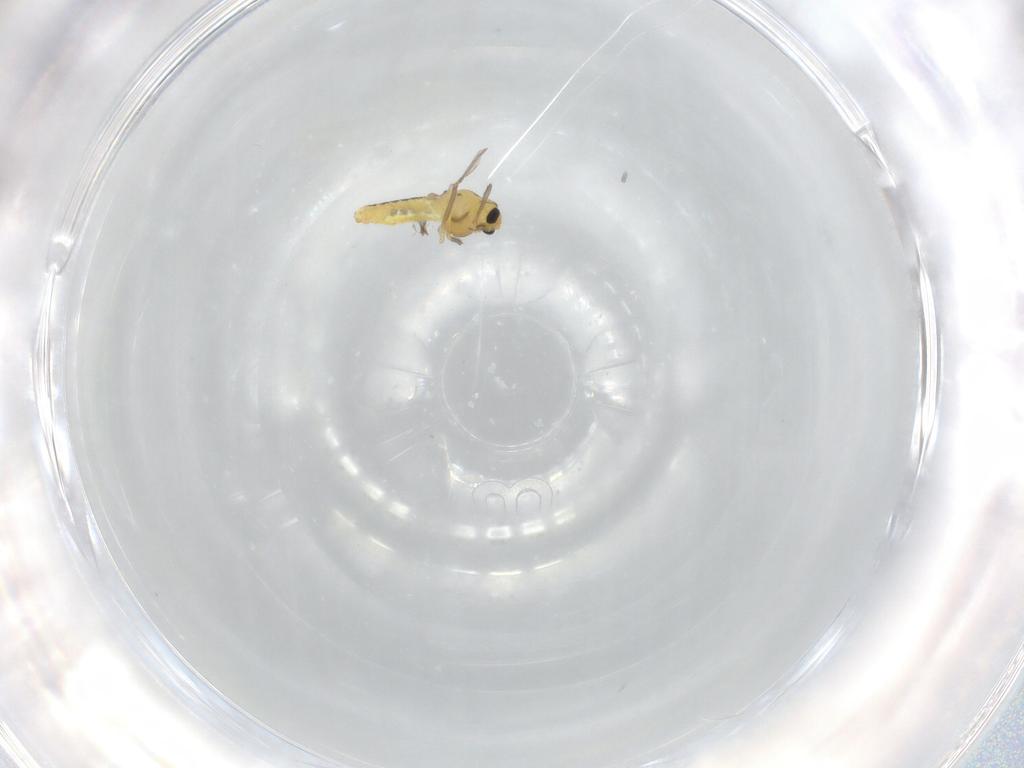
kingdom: Animalia
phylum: Arthropoda
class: Insecta
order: Diptera
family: Chironomidae
